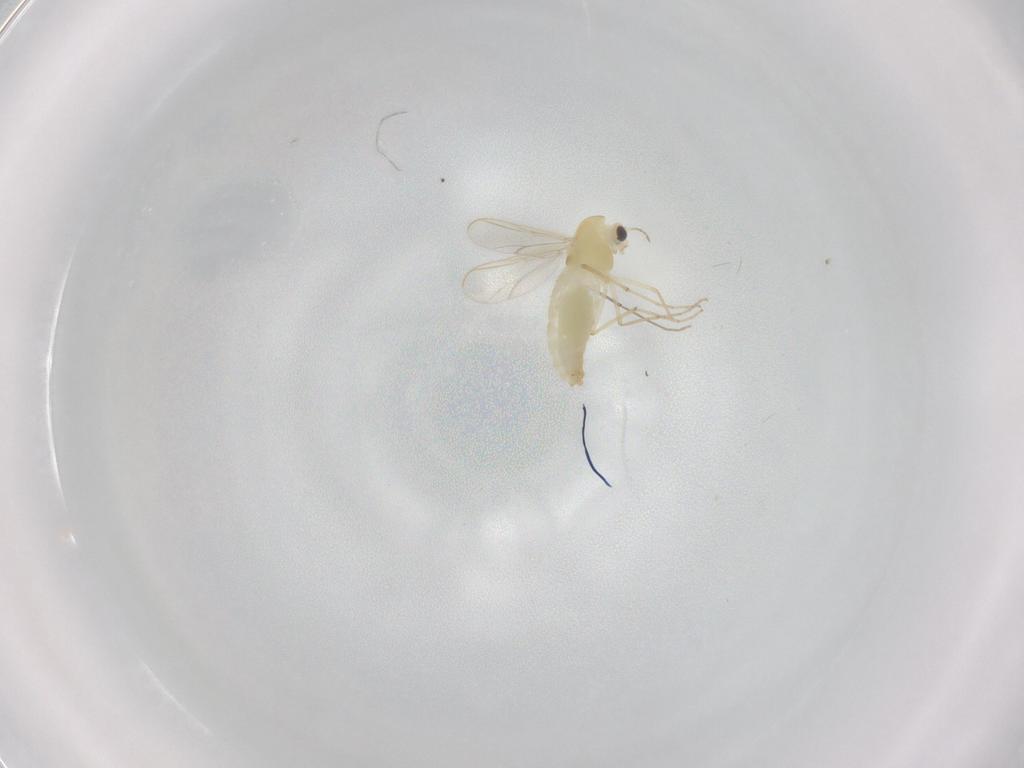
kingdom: Animalia
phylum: Arthropoda
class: Insecta
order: Diptera
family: Chironomidae
